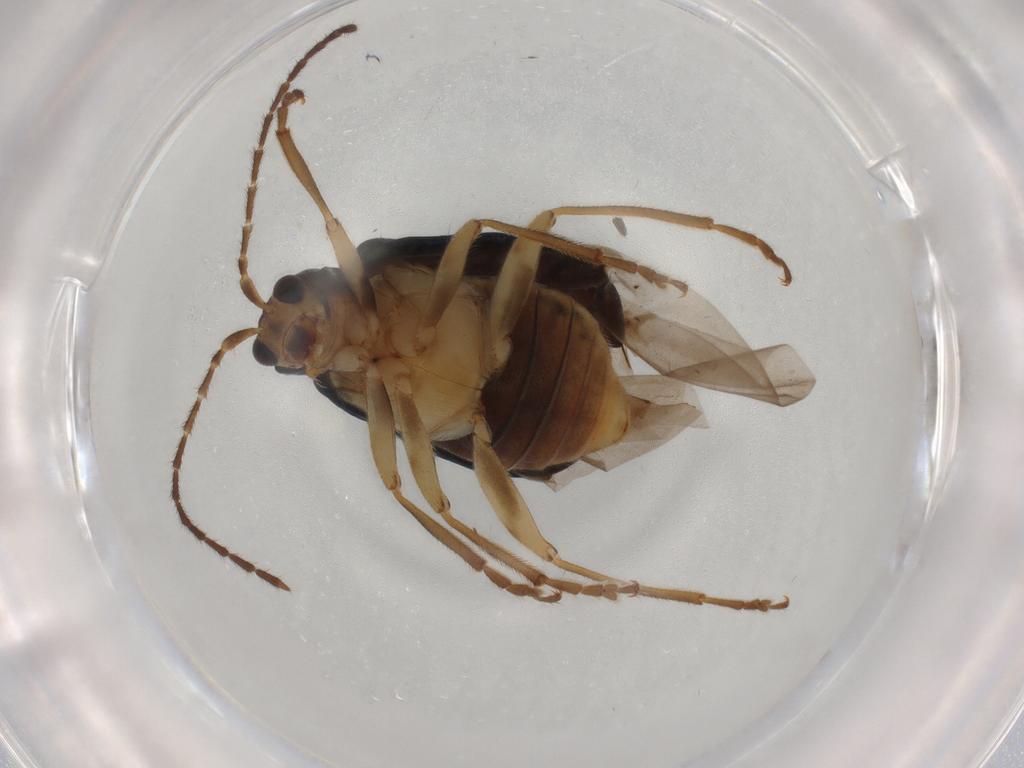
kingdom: Animalia
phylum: Arthropoda
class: Insecta
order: Coleoptera
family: Chrysomelidae
